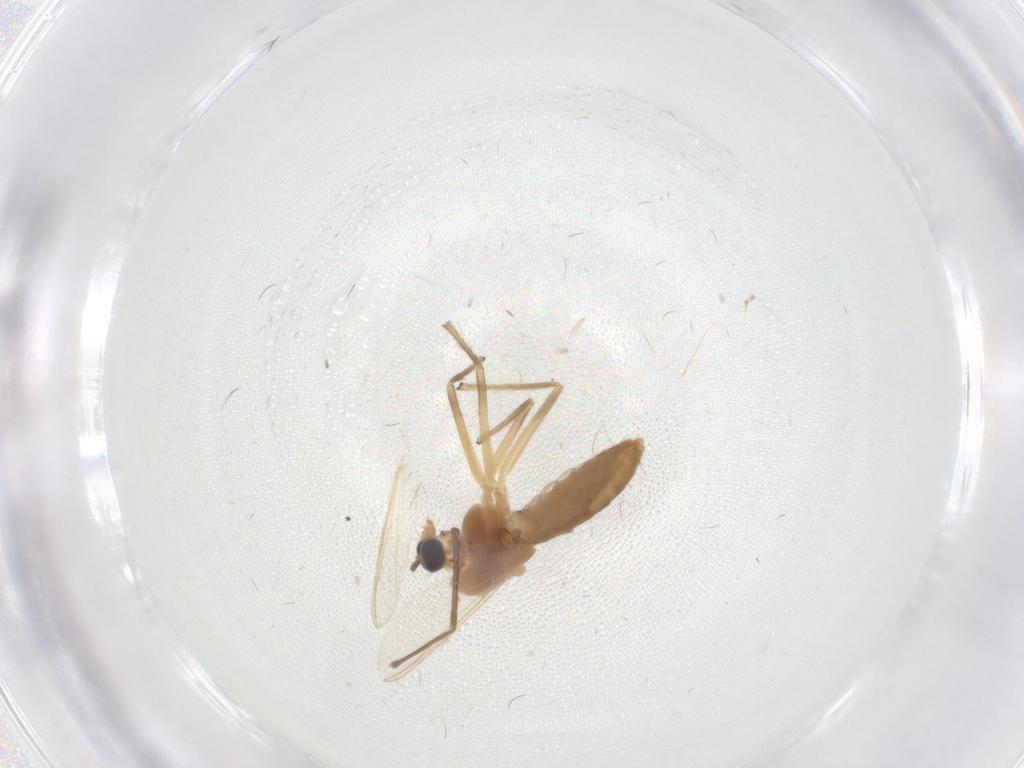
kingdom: Animalia
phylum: Arthropoda
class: Insecta
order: Diptera
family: Chironomidae
